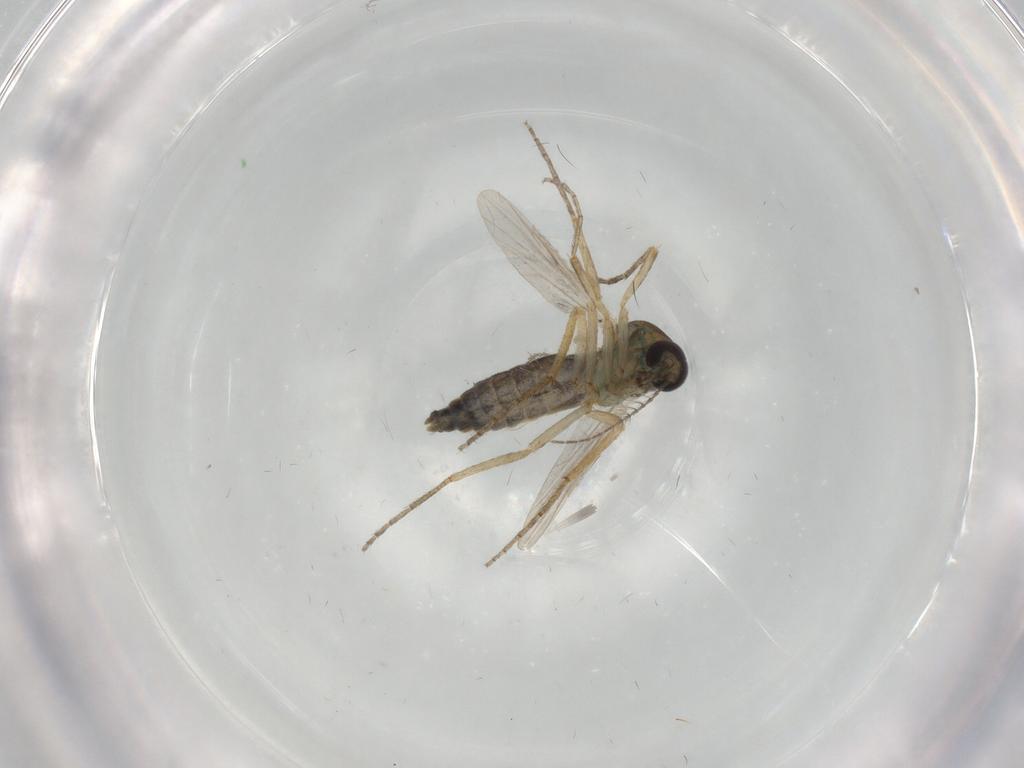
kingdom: Animalia
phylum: Arthropoda
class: Insecta
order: Diptera
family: Ceratopogonidae
